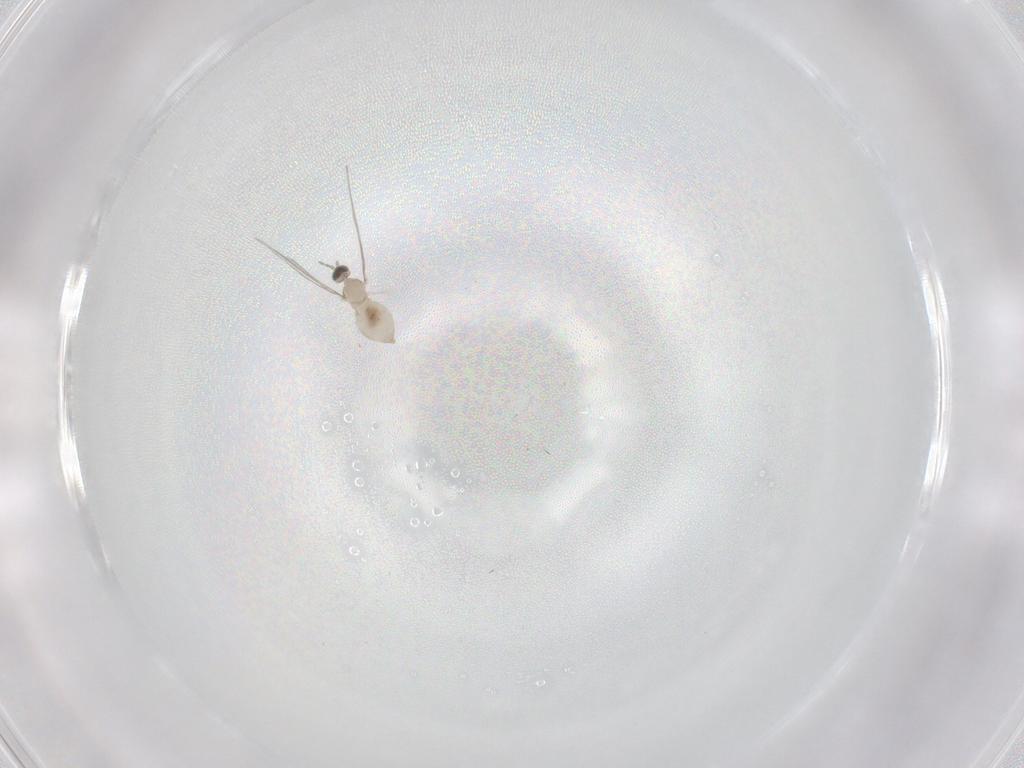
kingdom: Animalia
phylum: Arthropoda
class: Insecta
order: Diptera
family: Cecidomyiidae
